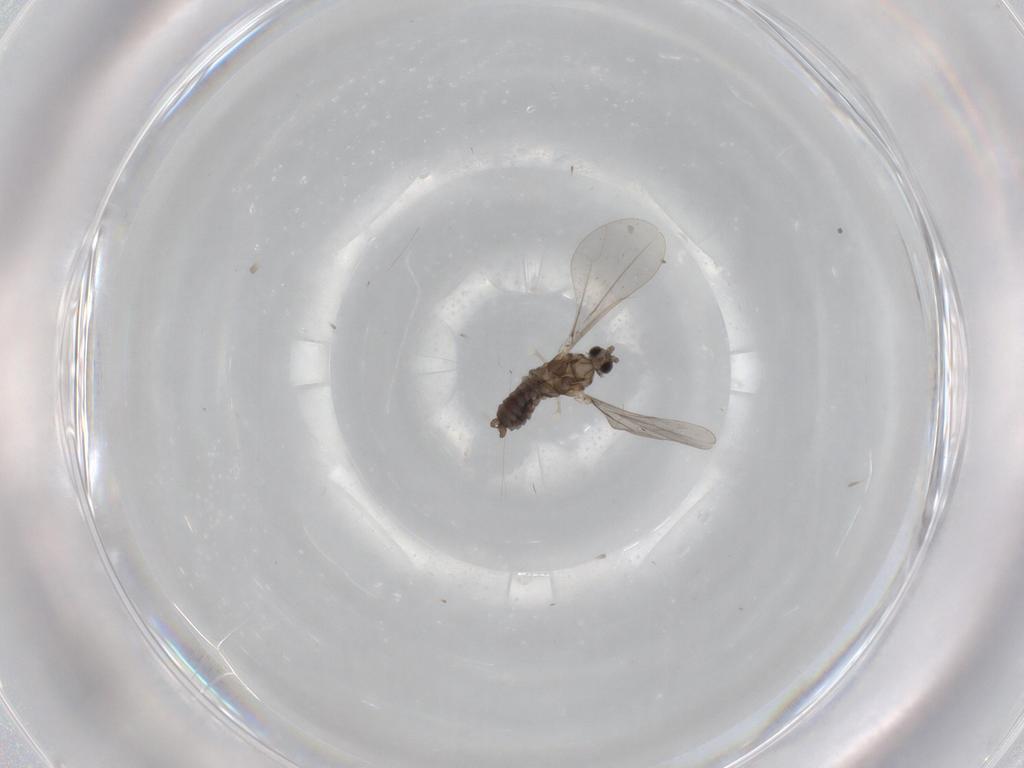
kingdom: Animalia
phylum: Arthropoda
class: Insecta
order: Diptera
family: Cecidomyiidae
